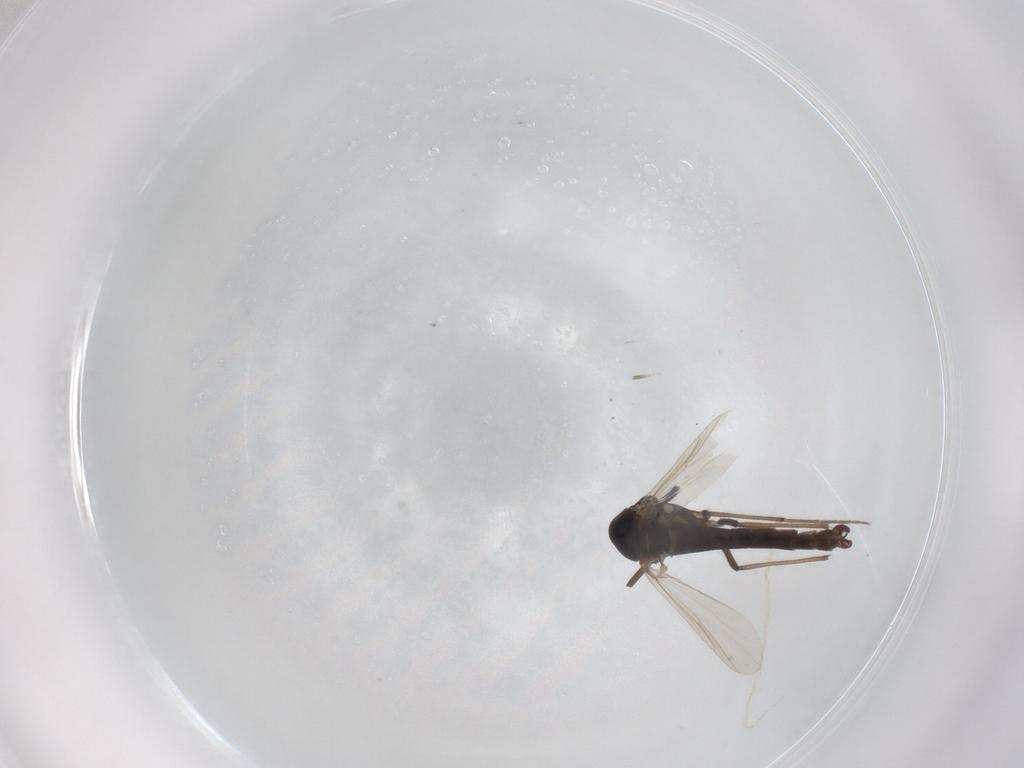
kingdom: Animalia
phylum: Arthropoda
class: Insecta
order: Diptera
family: Chironomidae
